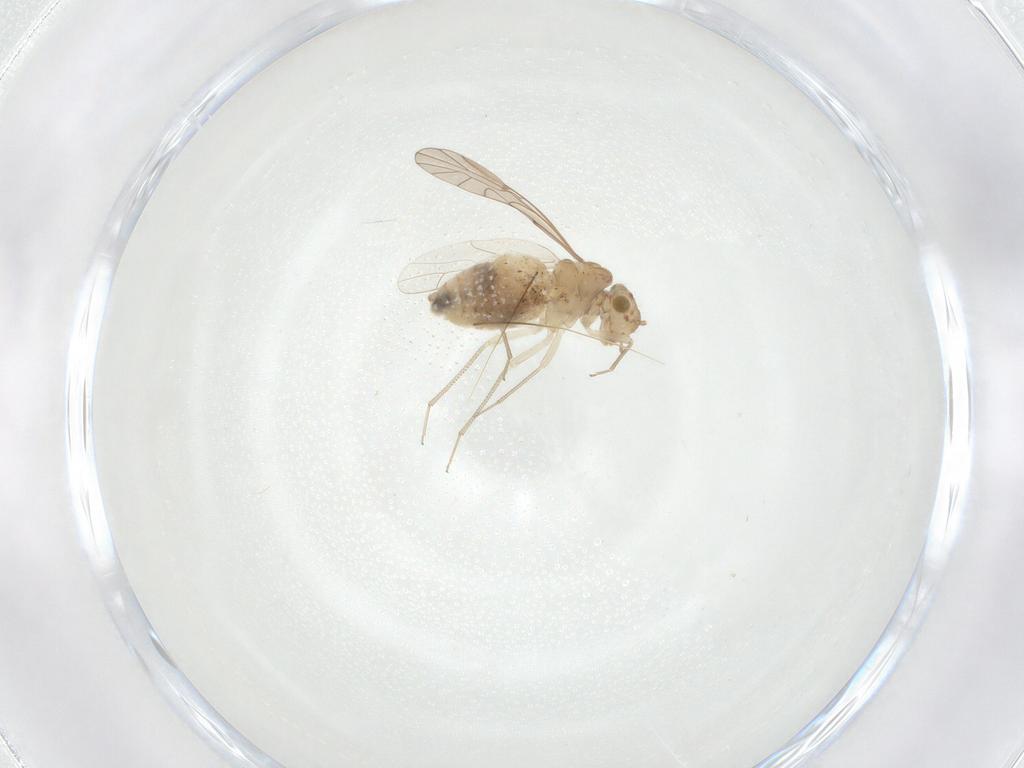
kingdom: Animalia
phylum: Arthropoda
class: Insecta
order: Psocodea
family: Lachesillidae
